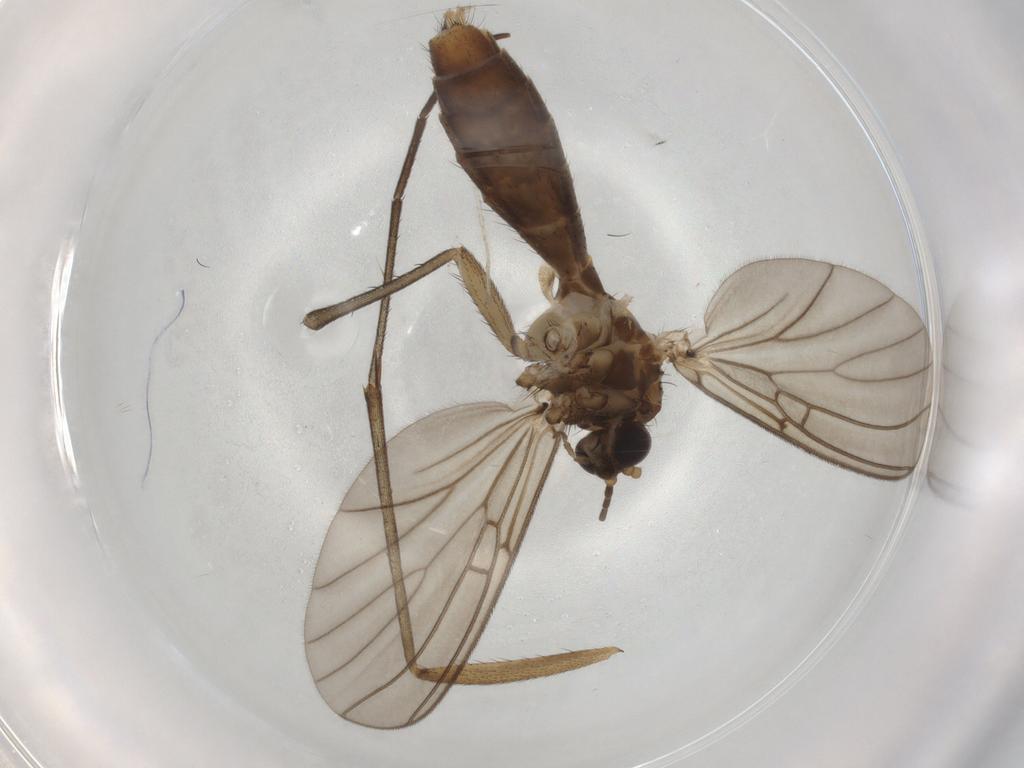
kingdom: Animalia
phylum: Arthropoda
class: Insecta
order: Diptera
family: Mycetophilidae
